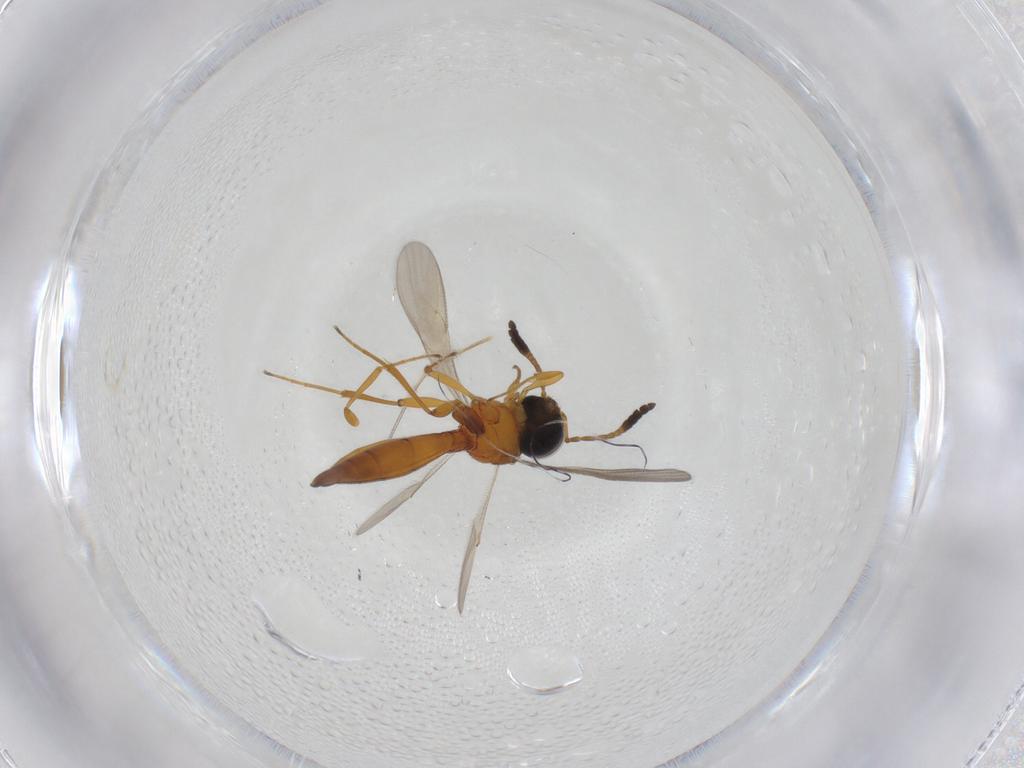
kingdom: Animalia
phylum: Arthropoda
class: Insecta
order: Hymenoptera
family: Scelionidae
